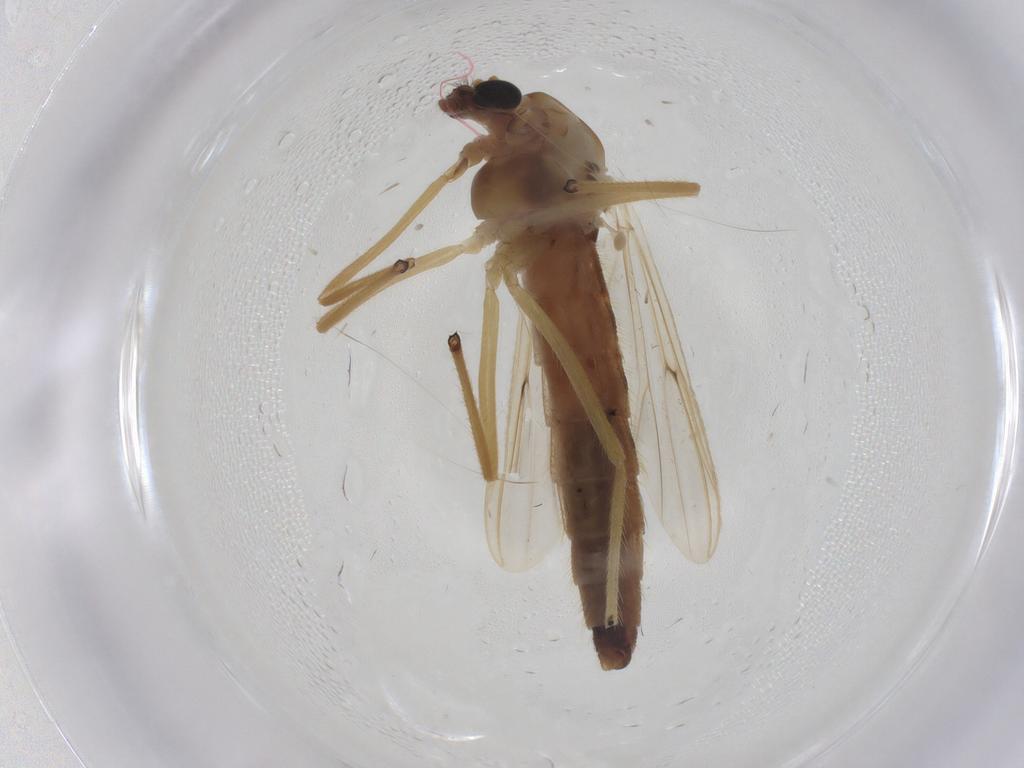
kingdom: Animalia
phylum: Arthropoda
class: Insecta
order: Diptera
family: Chironomidae
